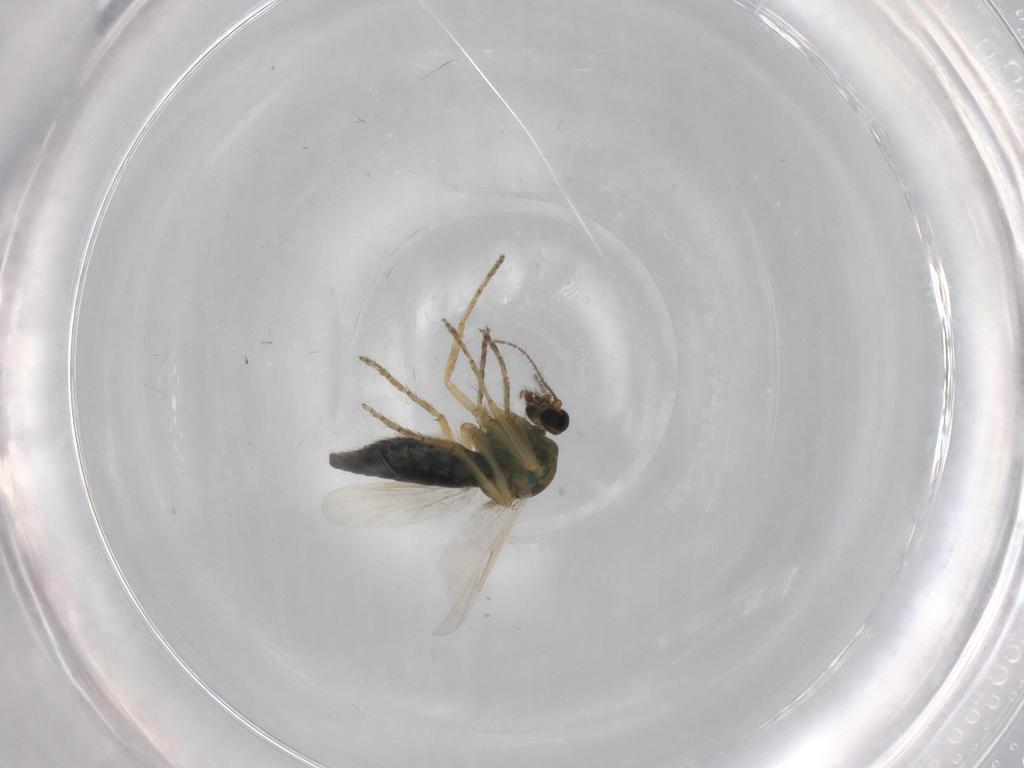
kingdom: Animalia
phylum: Arthropoda
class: Insecta
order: Diptera
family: Ceratopogonidae
